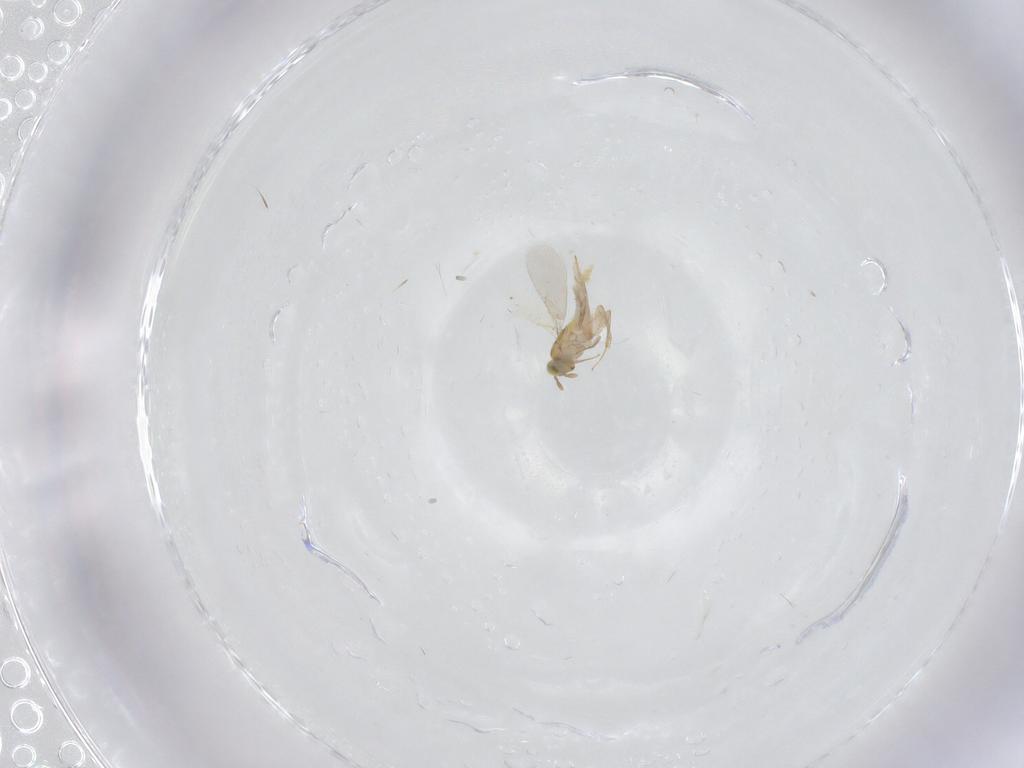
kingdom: Animalia
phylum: Arthropoda
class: Insecta
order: Hymenoptera
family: Aphelinidae
